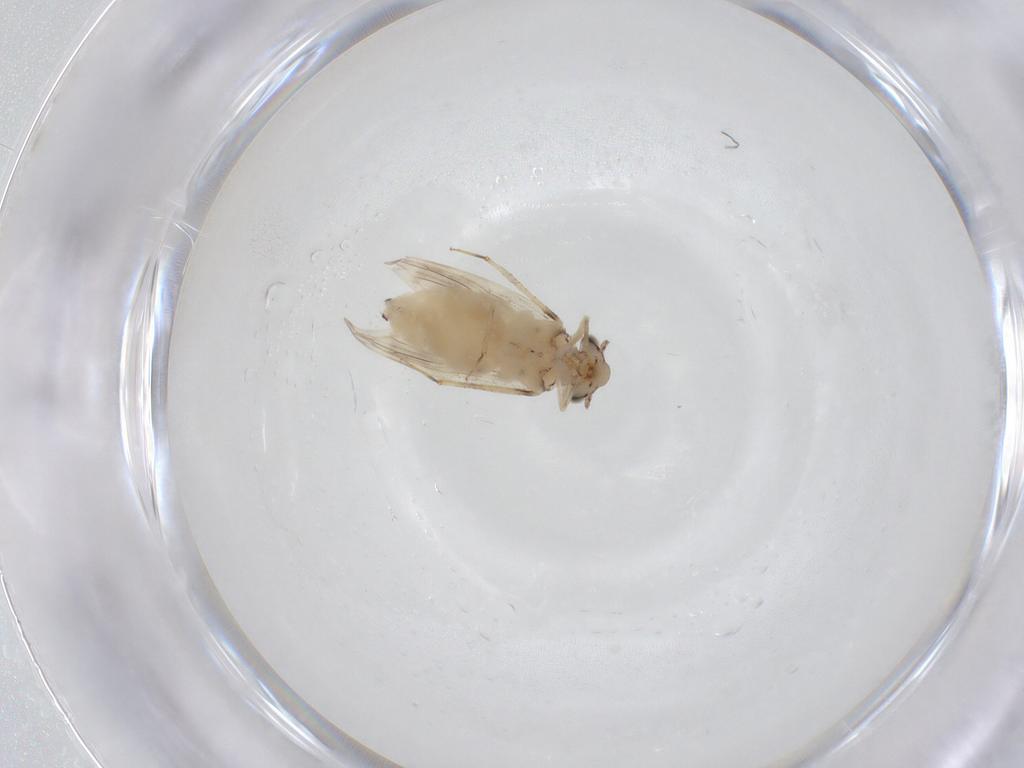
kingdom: Animalia
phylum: Arthropoda
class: Insecta
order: Psocodea
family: Lepidopsocidae
